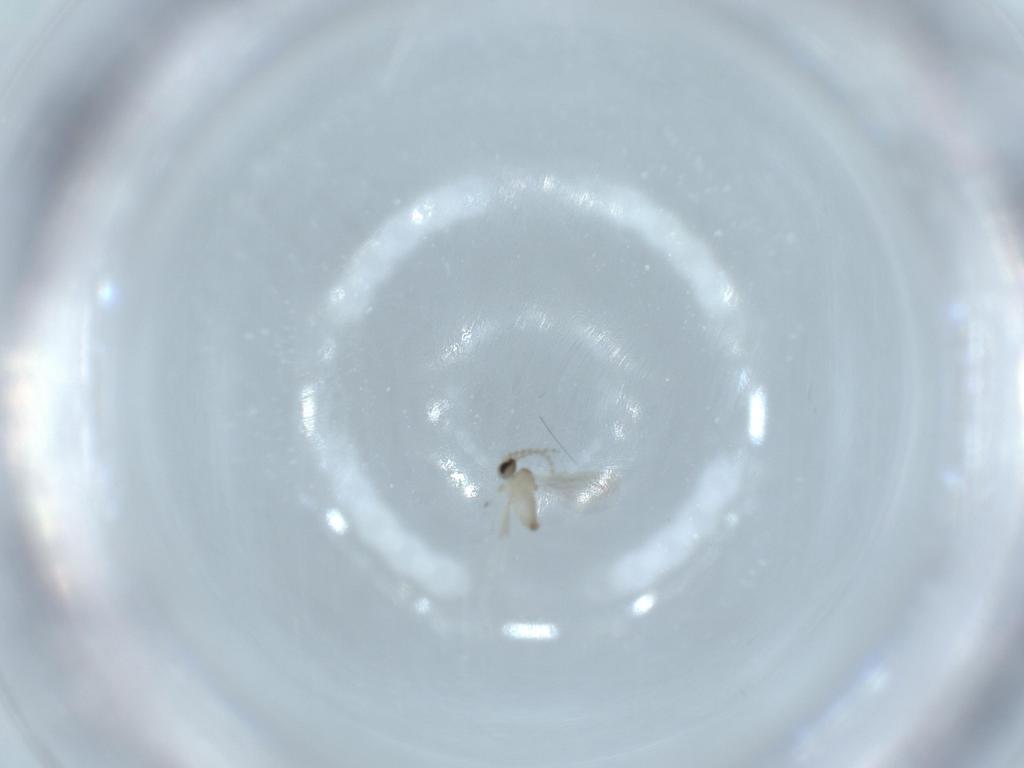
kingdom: Animalia
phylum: Arthropoda
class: Insecta
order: Diptera
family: Cecidomyiidae
